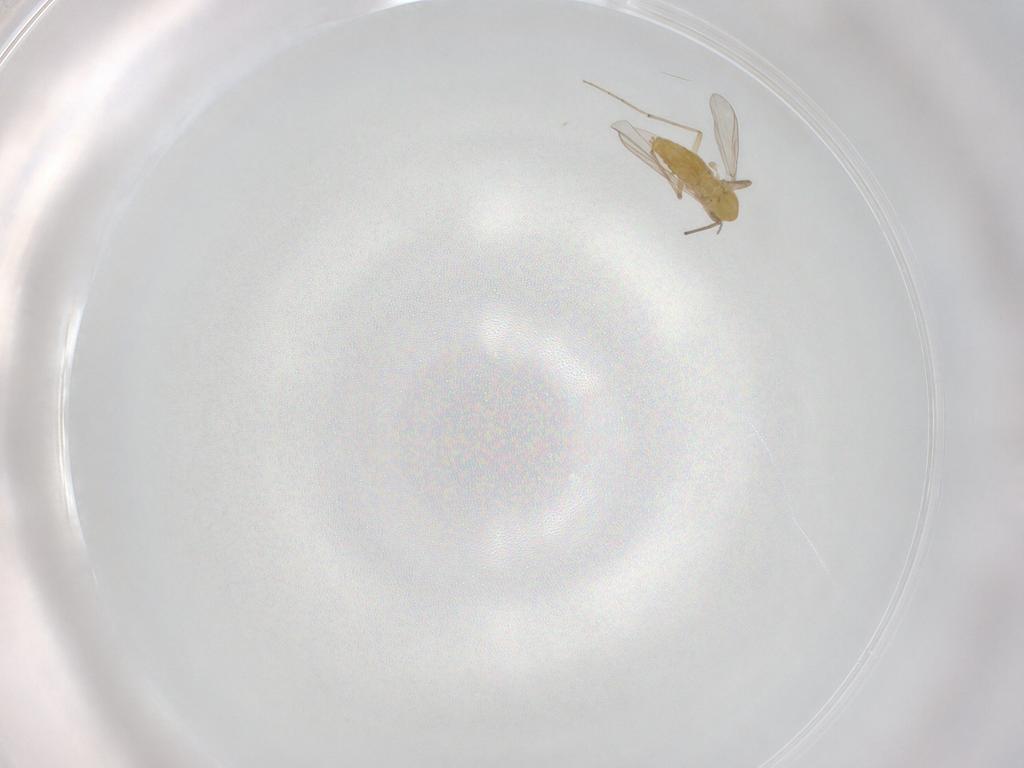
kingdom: Animalia
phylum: Arthropoda
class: Insecta
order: Diptera
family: Chironomidae
